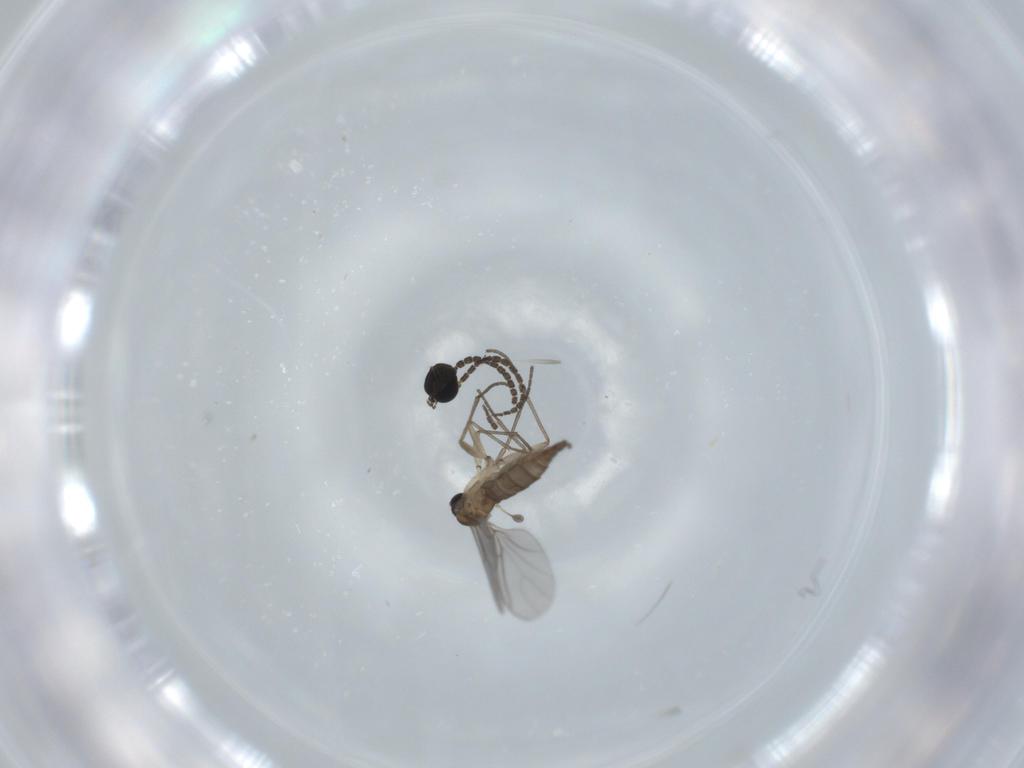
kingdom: Animalia
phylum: Arthropoda
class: Insecta
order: Diptera
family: Sciaridae
